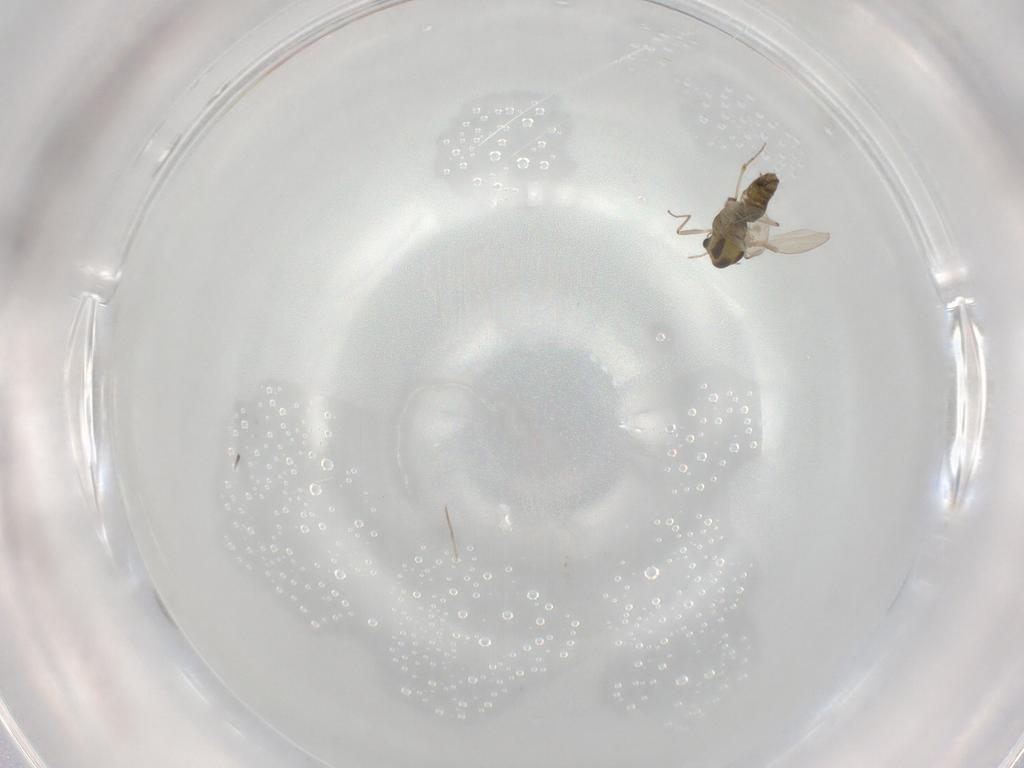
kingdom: Animalia
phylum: Arthropoda
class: Insecta
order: Diptera
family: Chironomidae
